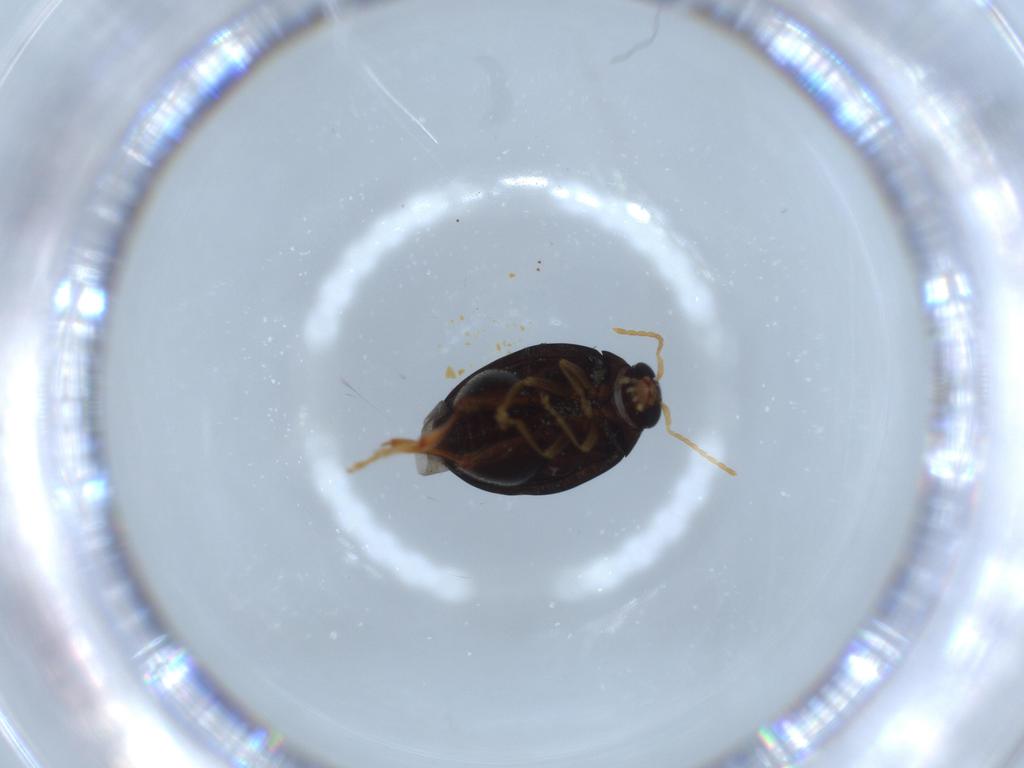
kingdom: Animalia
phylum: Arthropoda
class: Insecta
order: Coleoptera
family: Chrysomelidae
